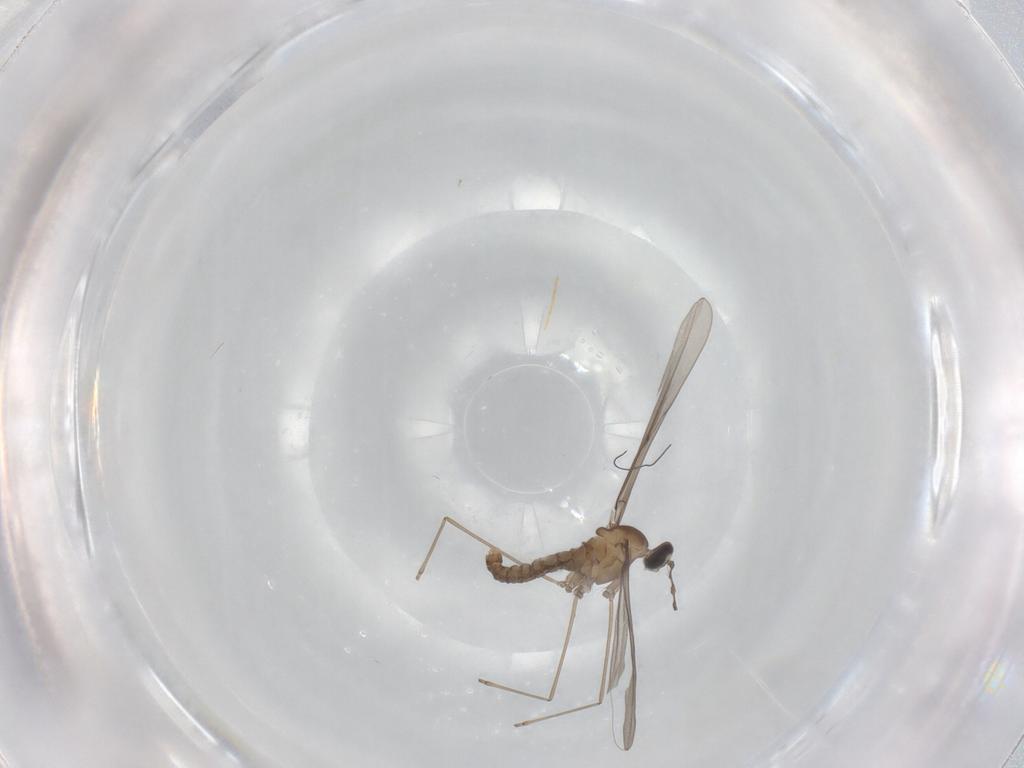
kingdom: Animalia
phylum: Arthropoda
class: Insecta
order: Diptera
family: Cecidomyiidae
